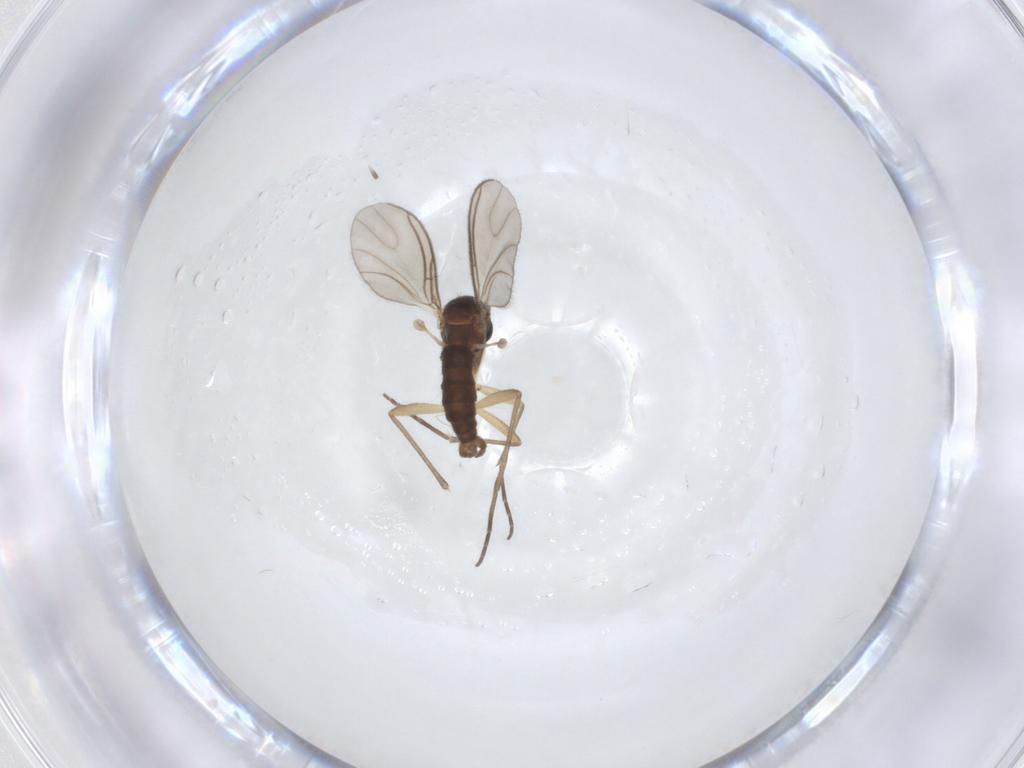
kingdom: Animalia
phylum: Arthropoda
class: Insecta
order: Diptera
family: Sciaridae
